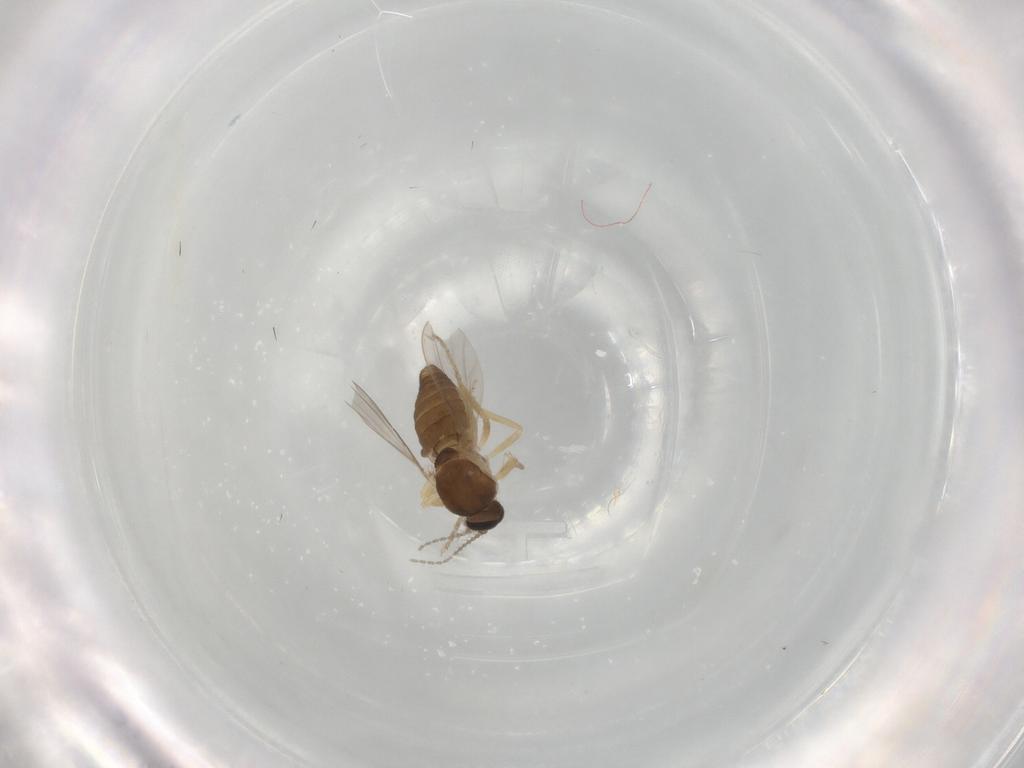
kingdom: Animalia
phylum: Arthropoda
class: Insecta
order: Diptera
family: Ceratopogonidae
